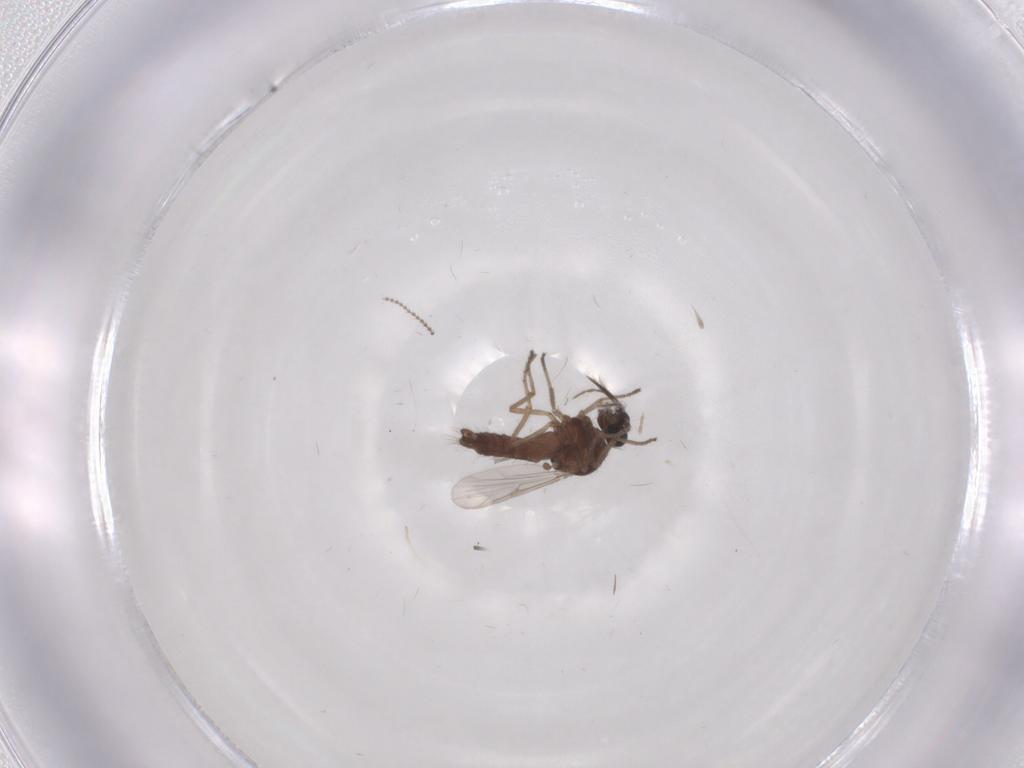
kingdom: Animalia
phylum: Arthropoda
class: Insecta
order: Diptera
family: Ceratopogonidae
